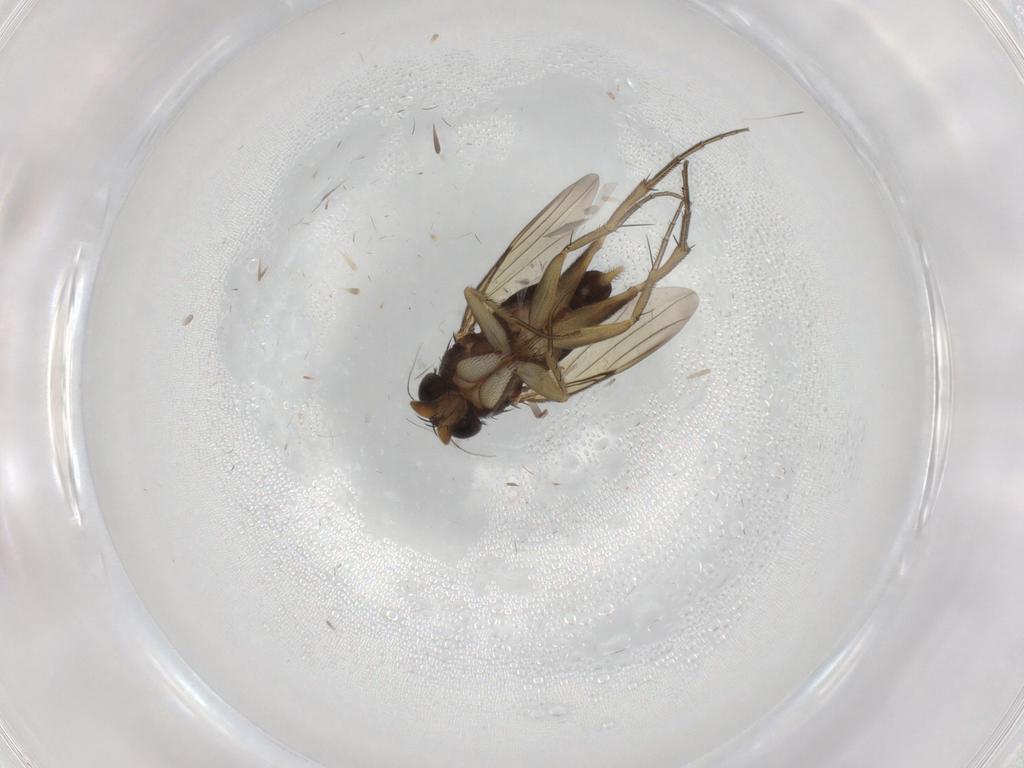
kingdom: Animalia
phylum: Arthropoda
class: Insecta
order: Diptera
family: Phoridae
